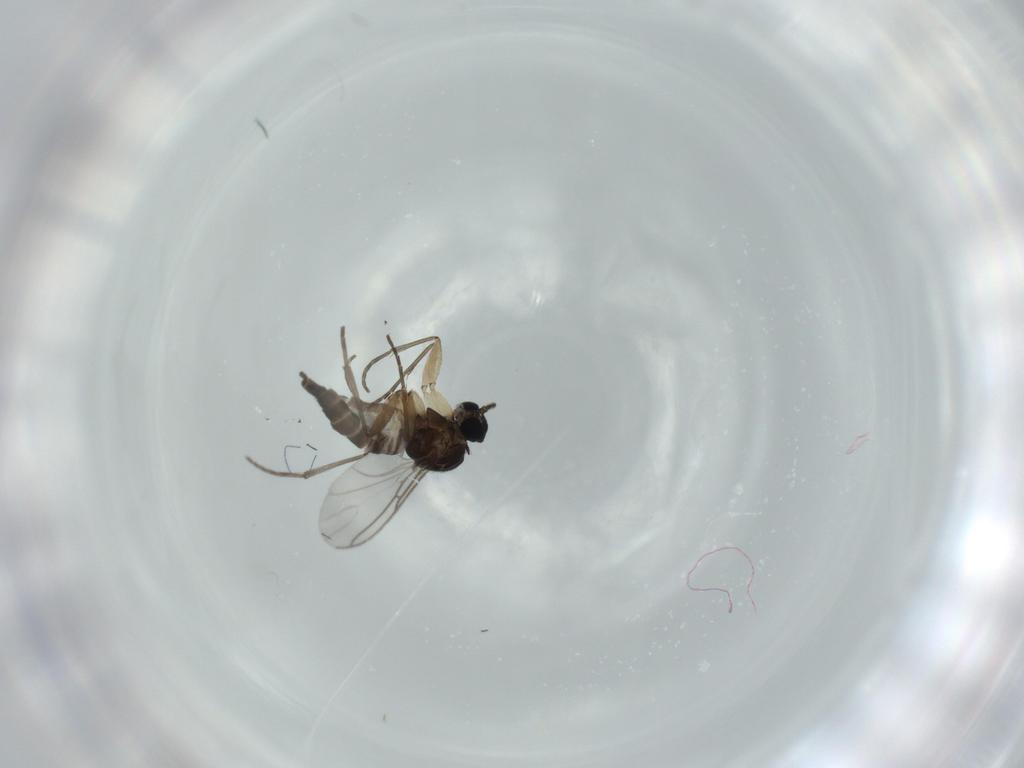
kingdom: Animalia
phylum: Arthropoda
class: Insecta
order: Diptera
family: Sciaridae
